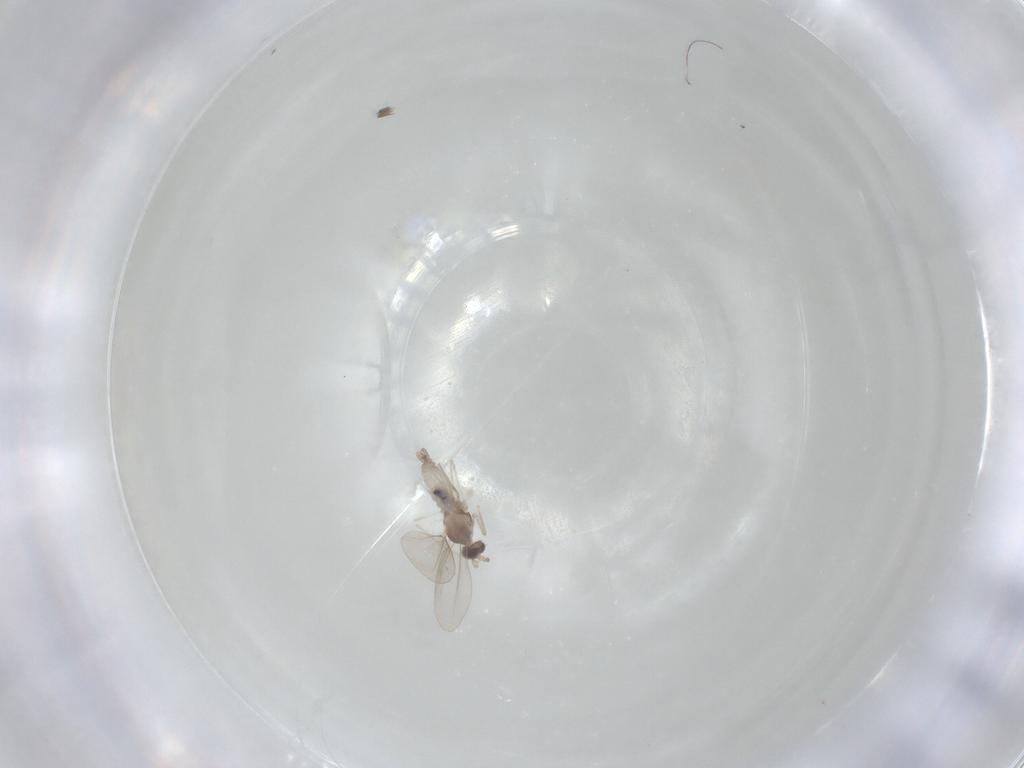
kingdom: Animalia
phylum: Arthropoda
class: Insecta
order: Diptera
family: Cecidomyiidae
